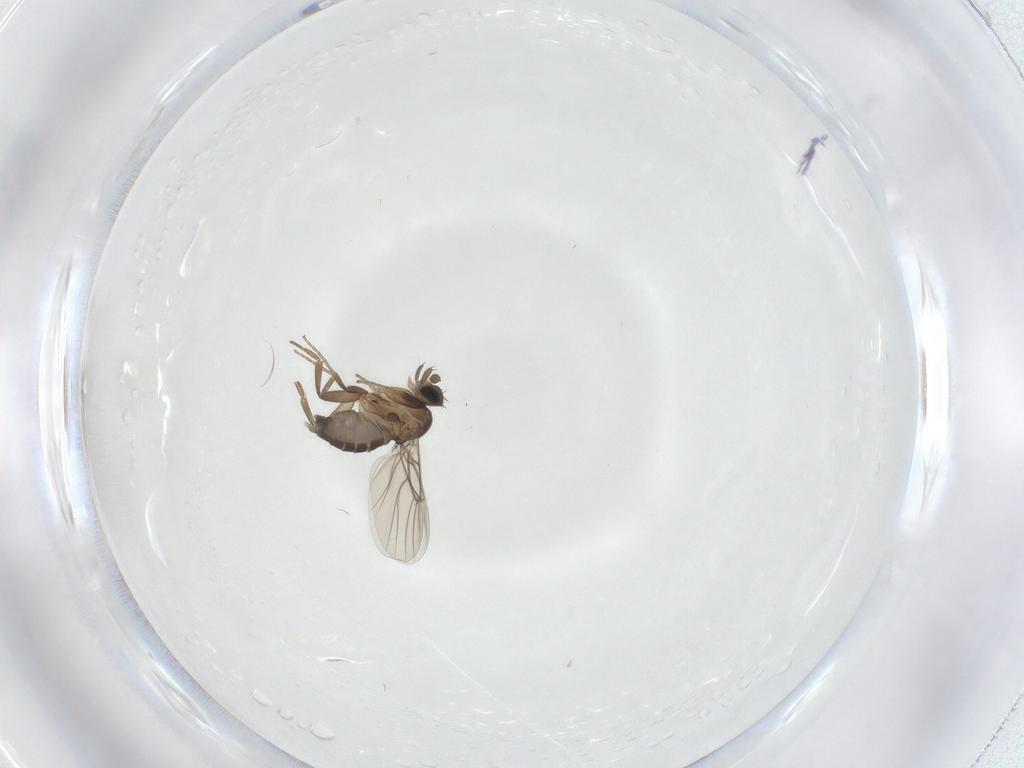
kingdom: Animalia
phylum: Arthropoda
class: Insecta
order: Diptera
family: Phoridae
